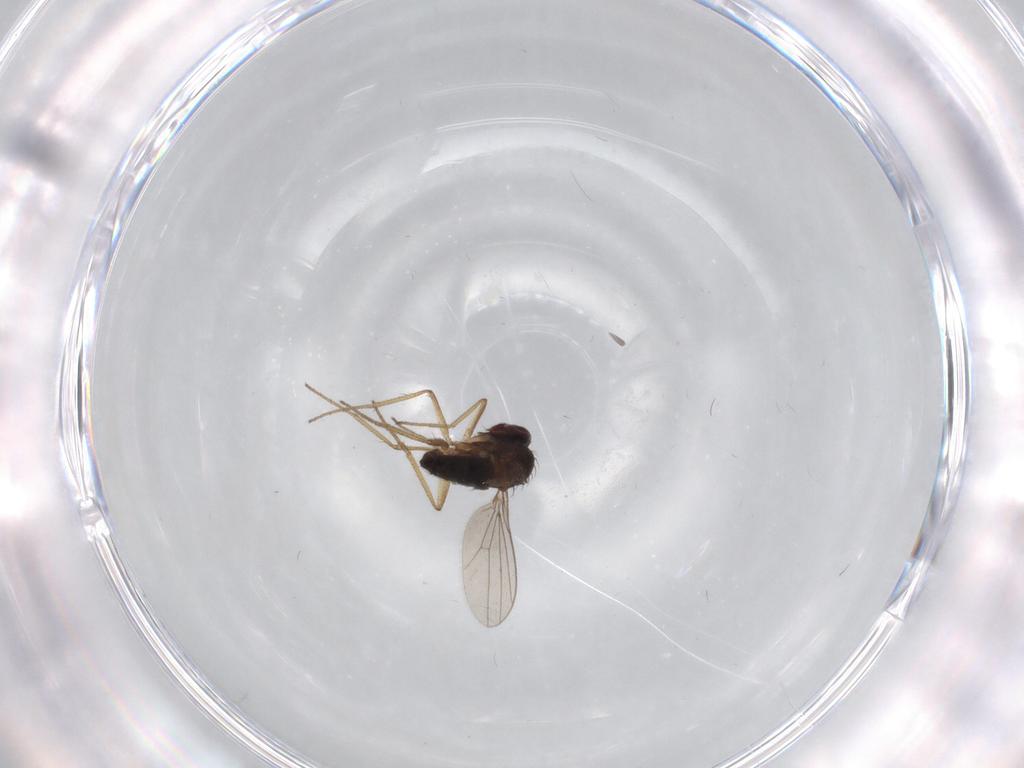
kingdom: Animalia
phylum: Arthropoda
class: Insecta
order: Diptera
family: Dolichopodidae
